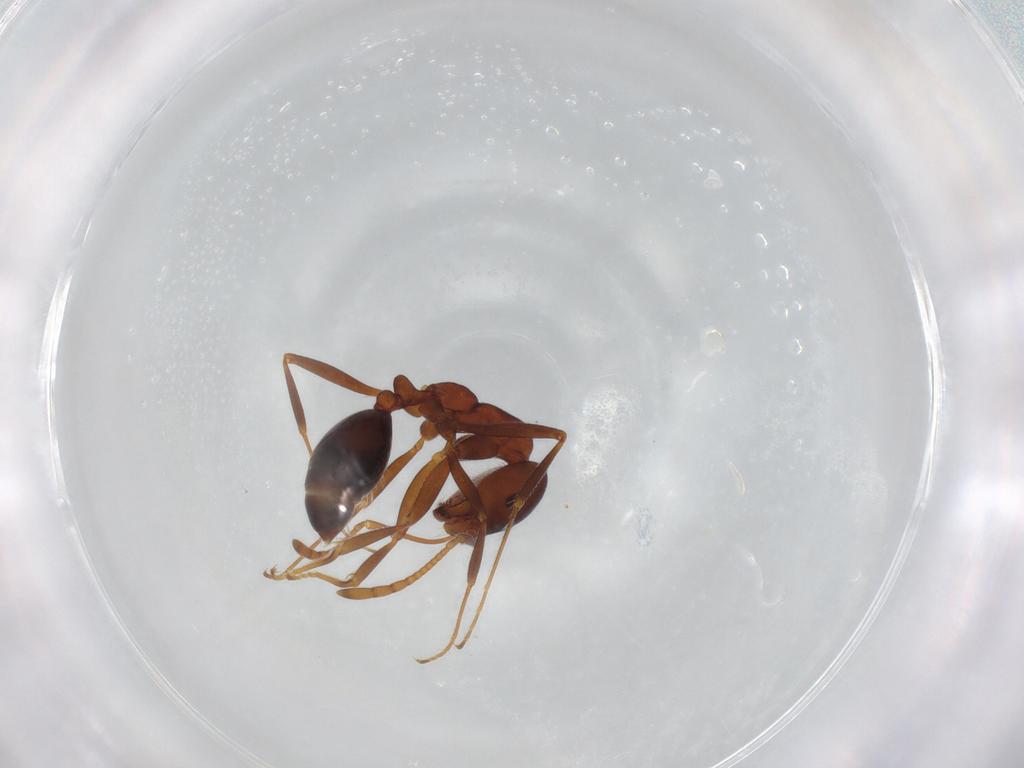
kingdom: Animalia
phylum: Arthropoda
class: Insecta
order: Hymenoptera
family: Formicidae
